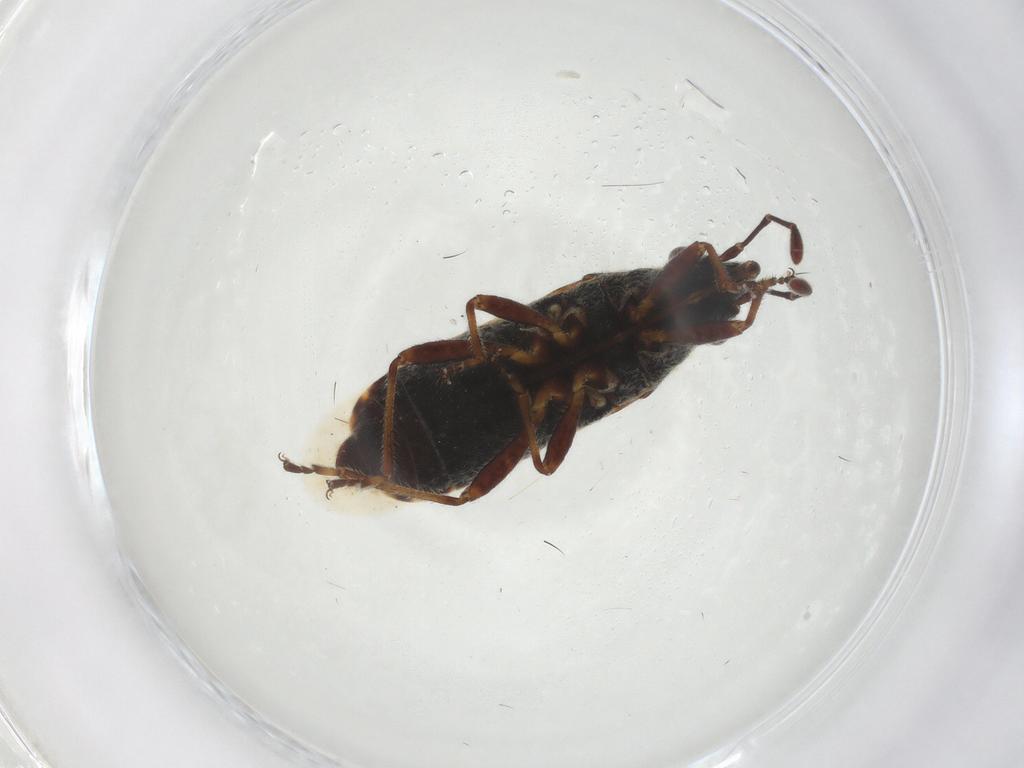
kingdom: Animalia
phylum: Arthropoda
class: Insecta
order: Hemiptera
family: Lygaeidae
